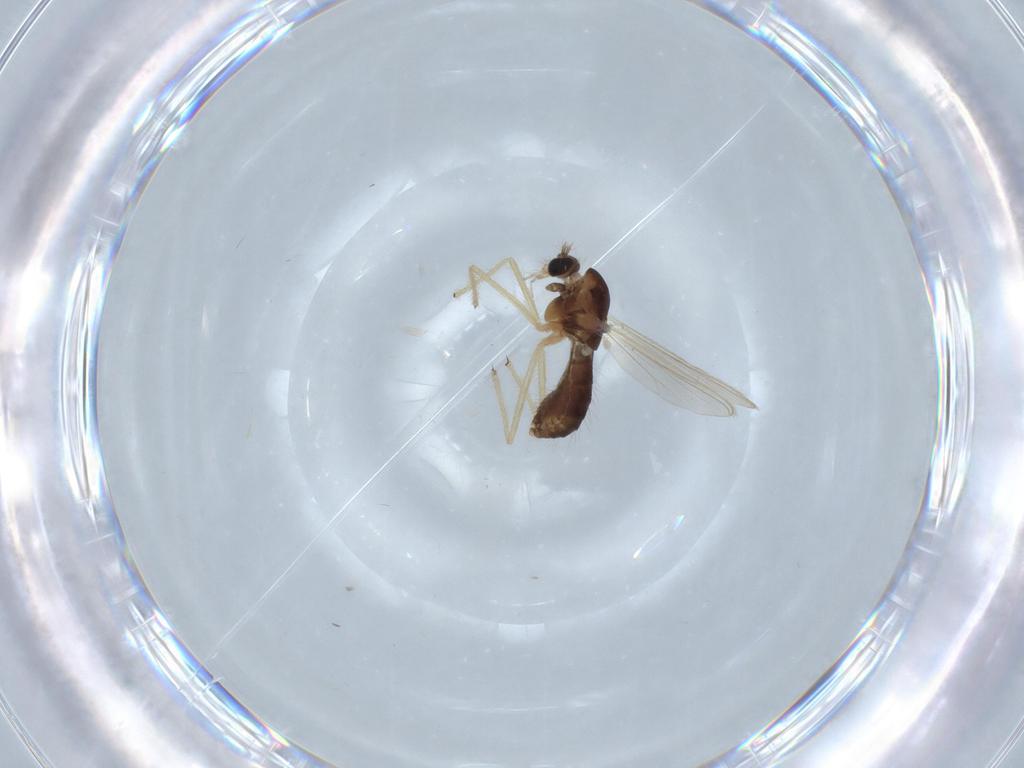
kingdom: Animalia
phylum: Arthropoda
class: Insecta
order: Diptera
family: Chironomidae
